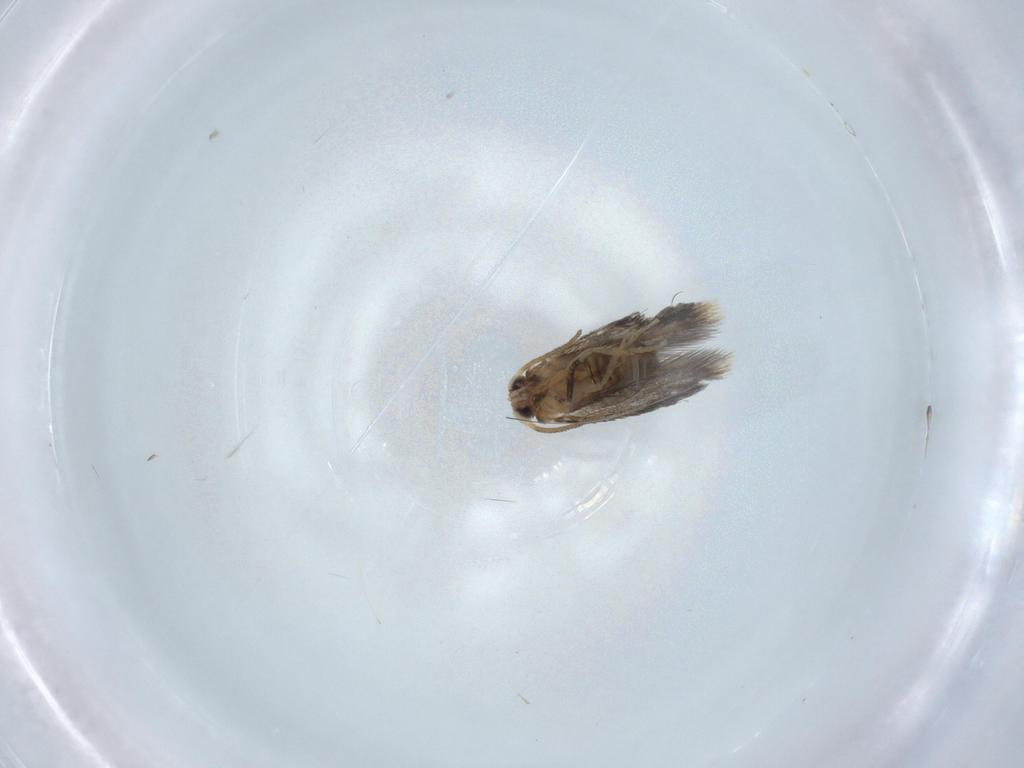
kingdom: Animalia
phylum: Arthropoda
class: Insecta
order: Lepidoptera
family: Nepticulidae
